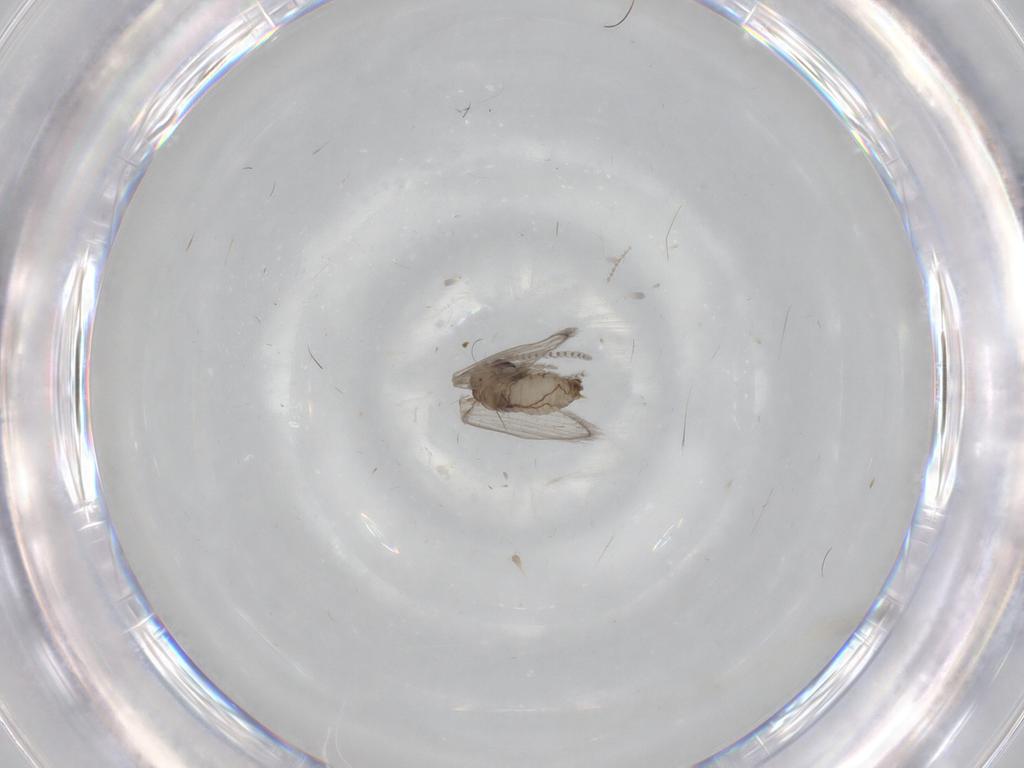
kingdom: Animalia
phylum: Arthropoda
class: Insecta
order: Diptera
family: Psychodidae
